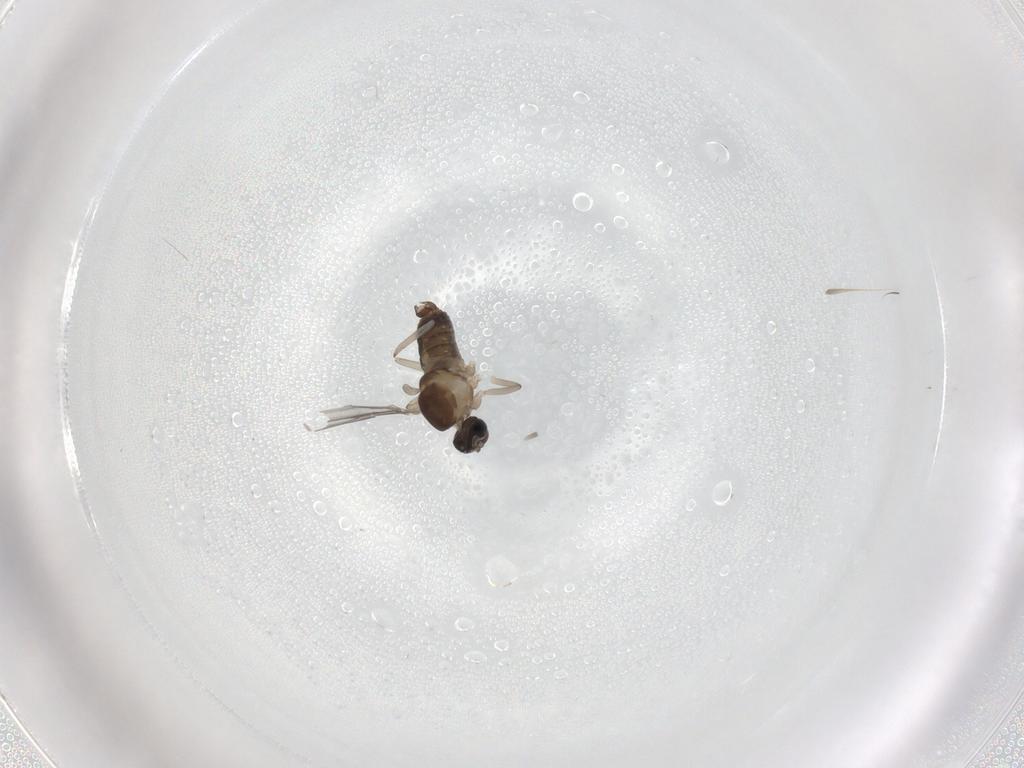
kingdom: Animalia
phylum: Arthropoda
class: Insecta
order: Diptera
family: Cecidomyiidae
